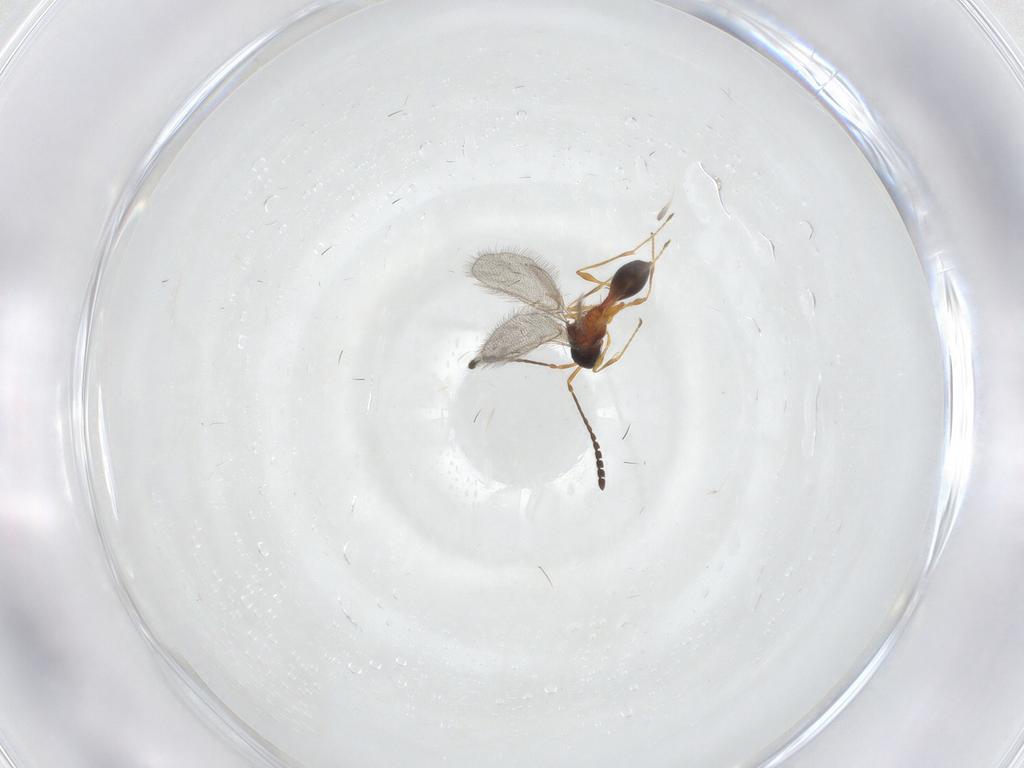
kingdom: Animalia
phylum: Arthropoda
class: Insecta
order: Hymenoptera
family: Diapriidae
